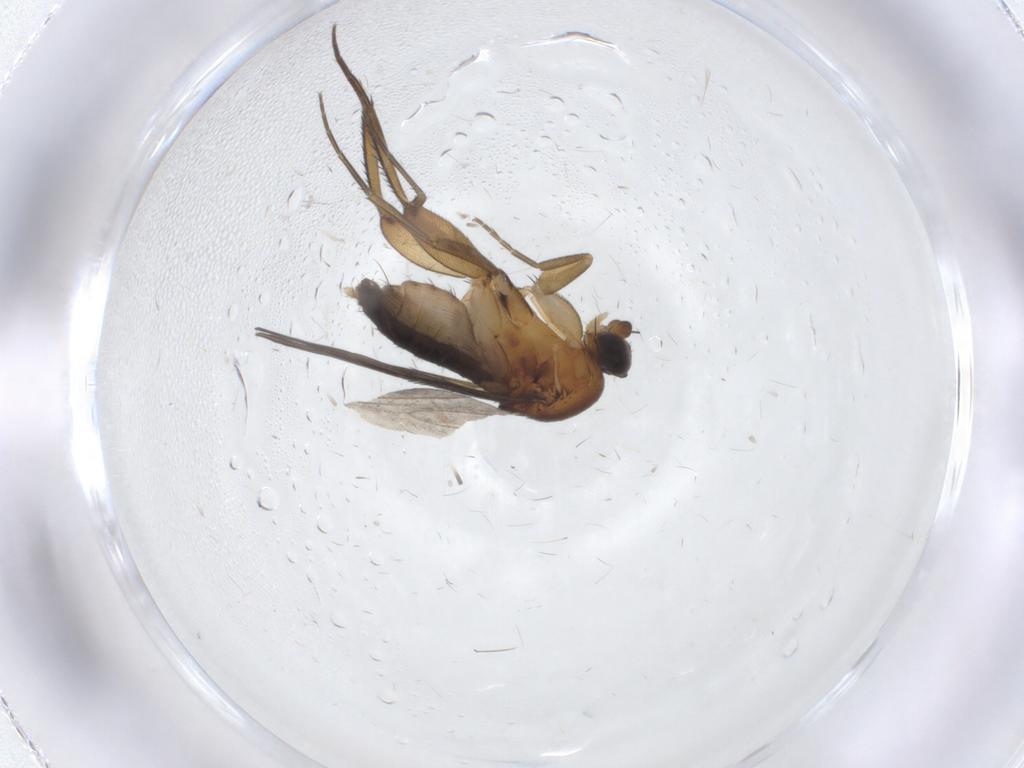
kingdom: Animalia
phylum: Arthropoda
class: Insecta
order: Diptera
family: Phoridae
